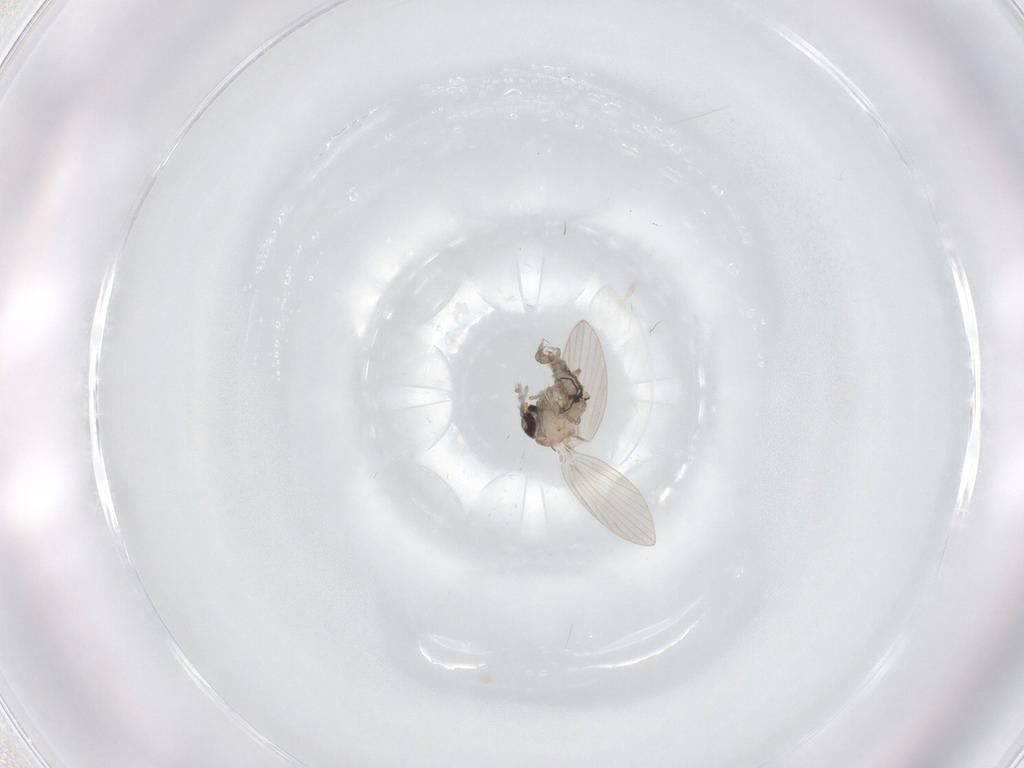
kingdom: Animalia
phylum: Arthropoda
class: Insecta
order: Diptera
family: Psychodidae
